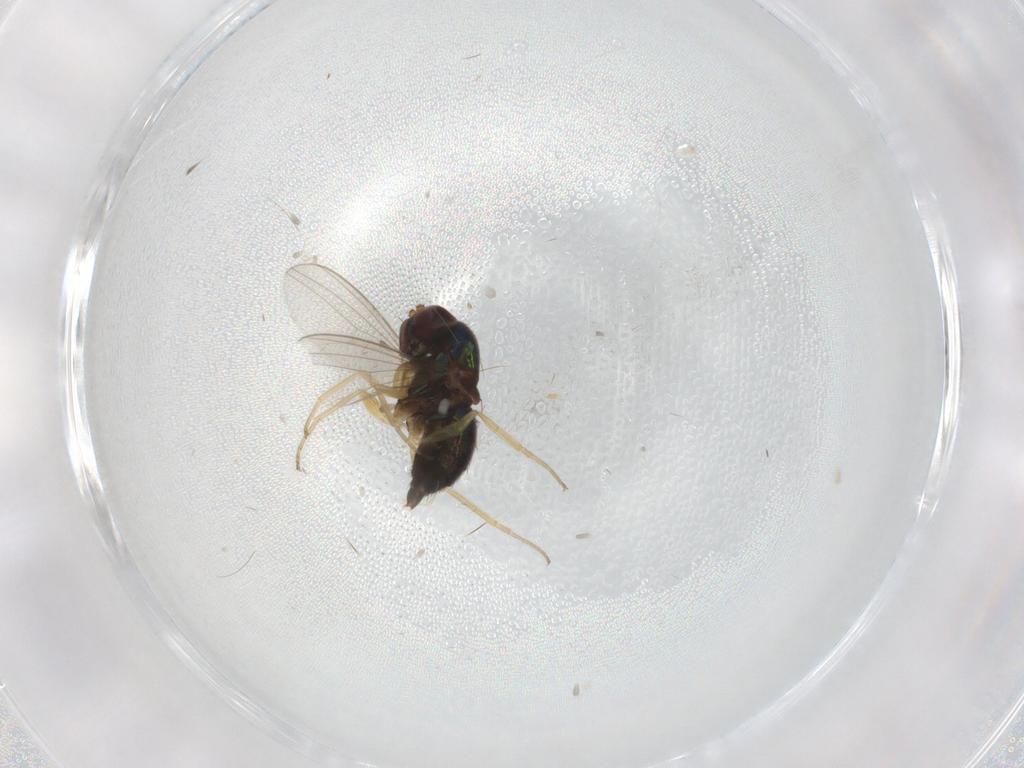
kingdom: Animalia
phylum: Arthropoda
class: Insecta
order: Diptera
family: Dolichopodidae
